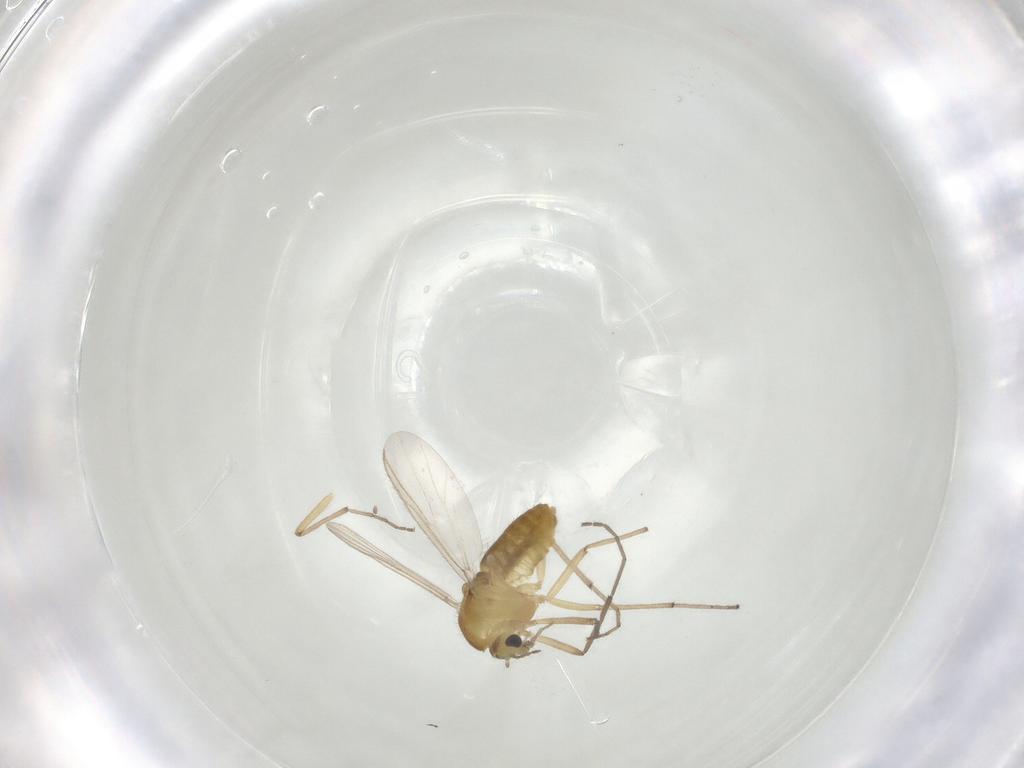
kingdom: Animalia
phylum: Arthropoda
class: Insecta
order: Diptera
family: Chironomidae
